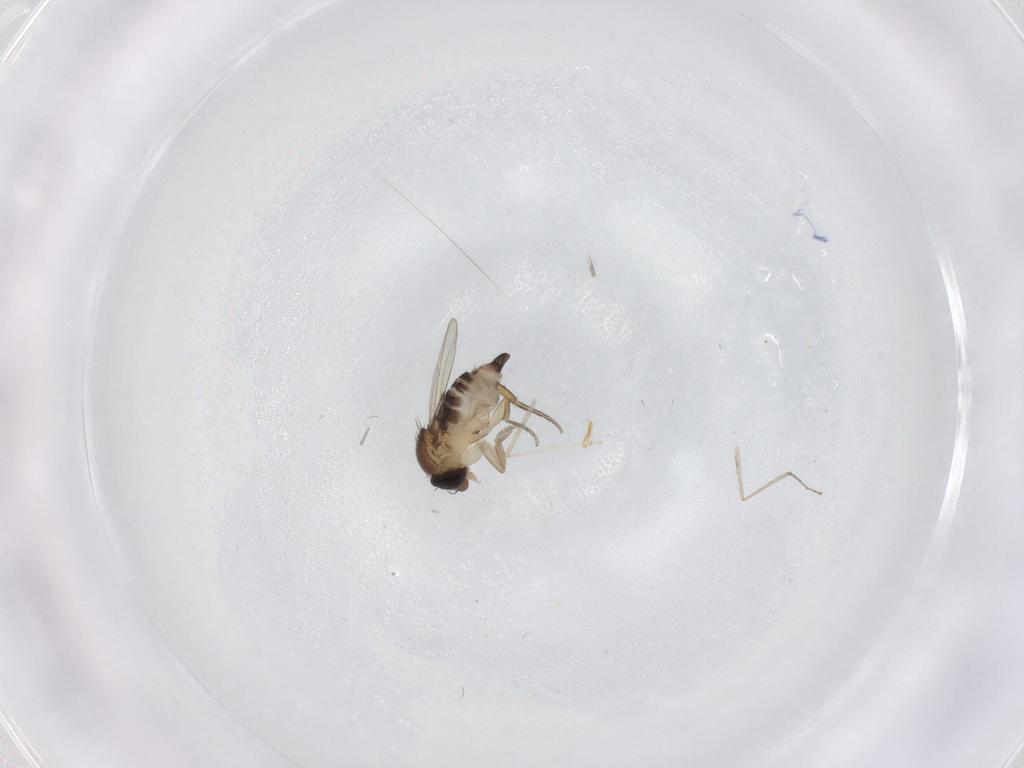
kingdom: Animalia
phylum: Arthropoda
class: Insecta
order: Diptera
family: Cecidomyiidae
